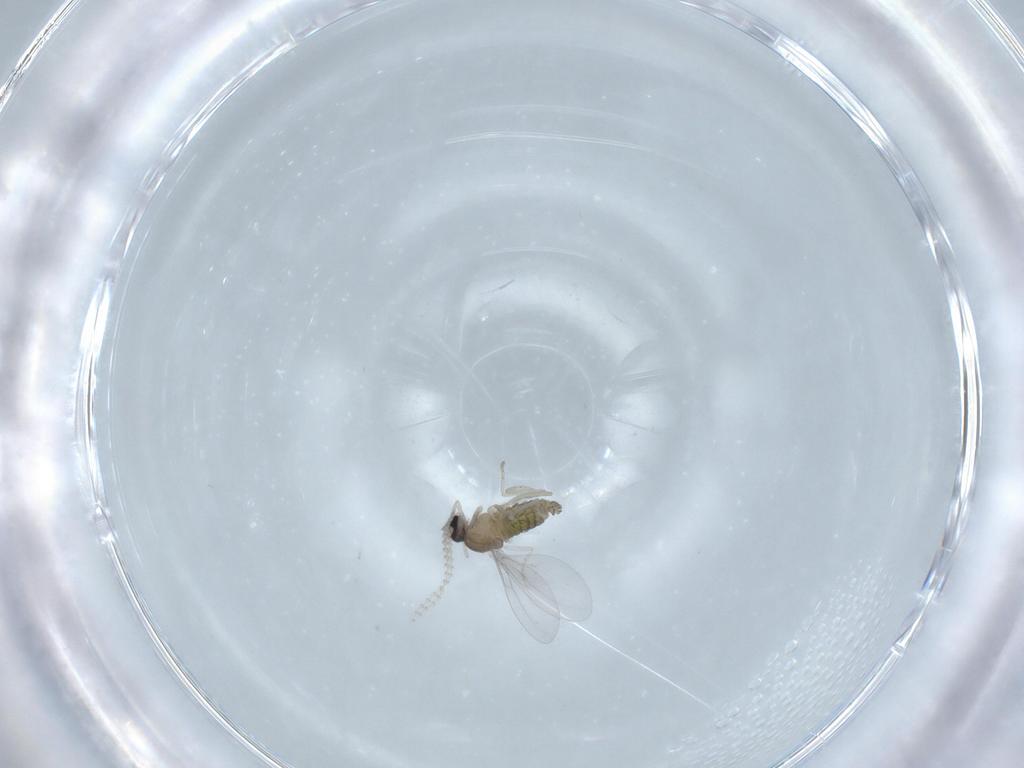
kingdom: Animalia
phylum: Arthropoda
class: Insecta
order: Diptera
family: Cecidomyiidae
